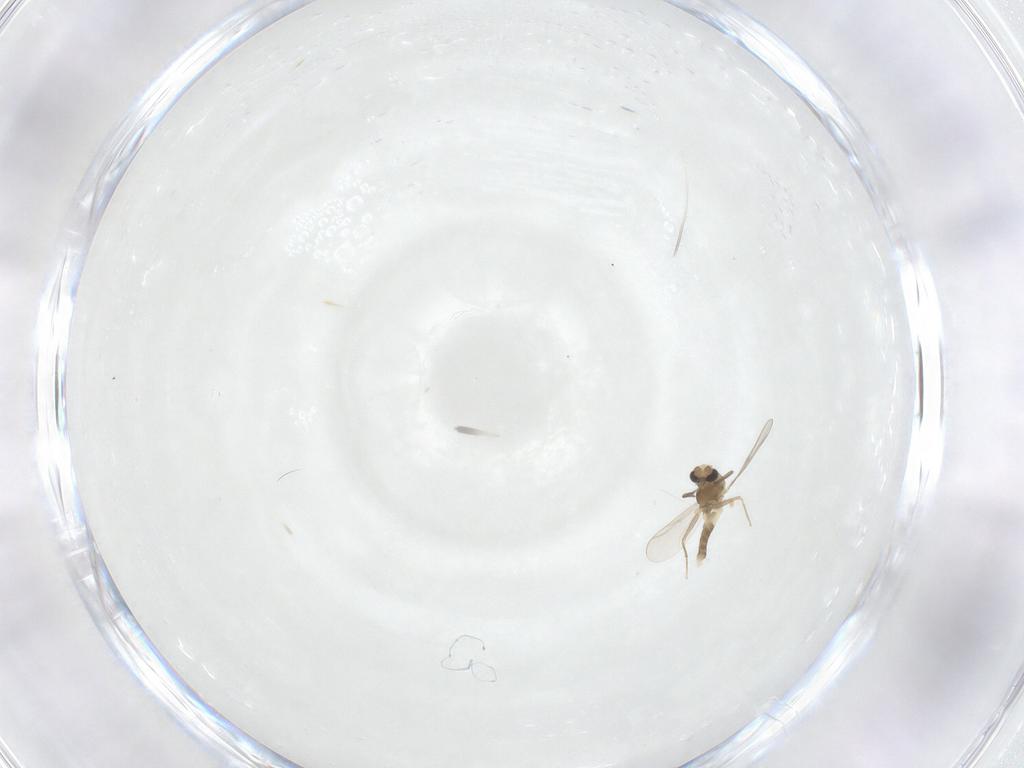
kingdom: Animalia
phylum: Arthropoda
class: Insecta
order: Diptera
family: Chironomidae
